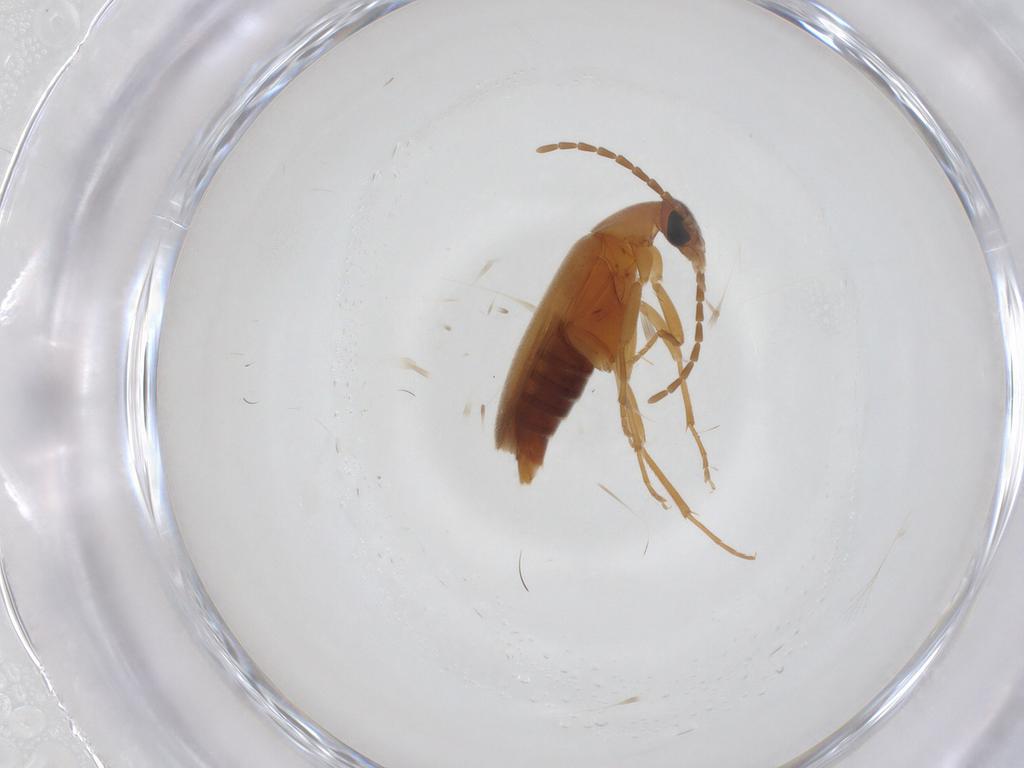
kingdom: Animalia
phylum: Arthropoda
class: Insecta
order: Coleoptera
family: Scraptiidae
